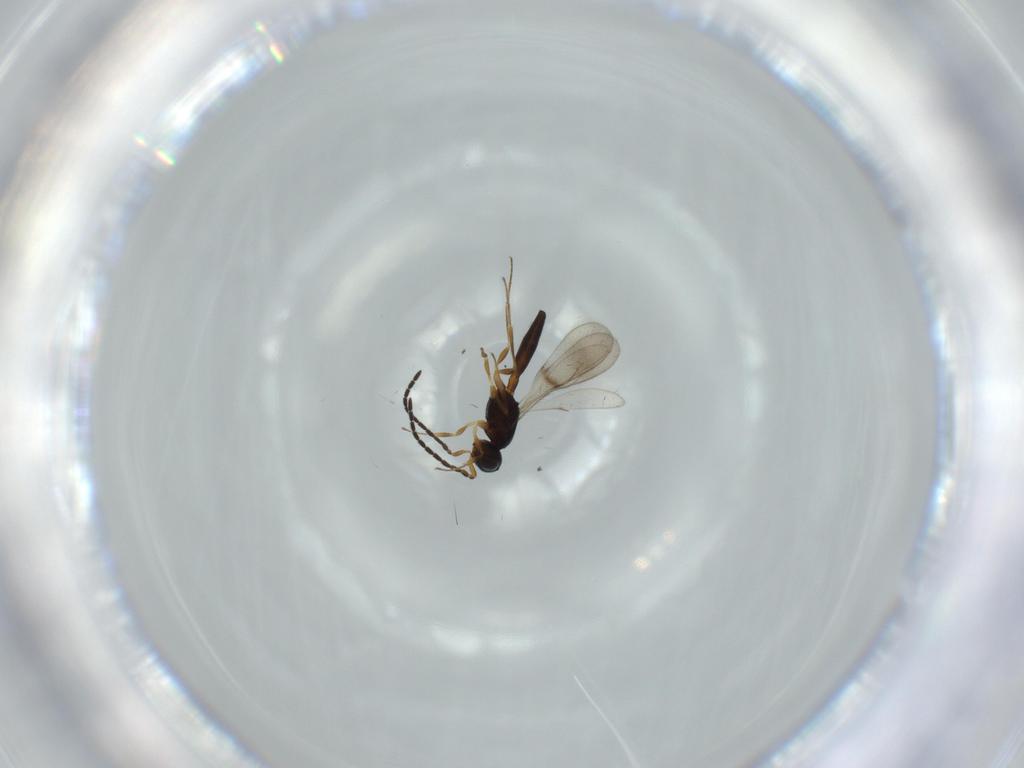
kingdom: Animalia
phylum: Arthropoda
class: Insecta
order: Hymenoptera
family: Scelionidae
